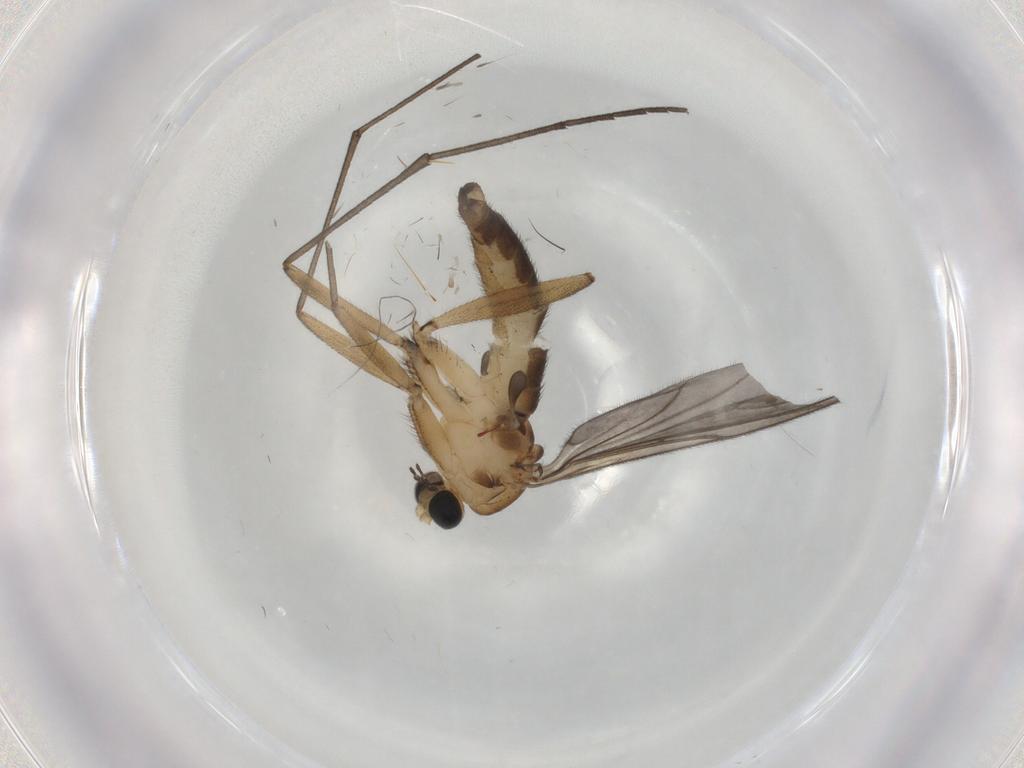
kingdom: Animalia
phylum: Arthropoda
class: Insecta
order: Diptera
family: Sciaridae
